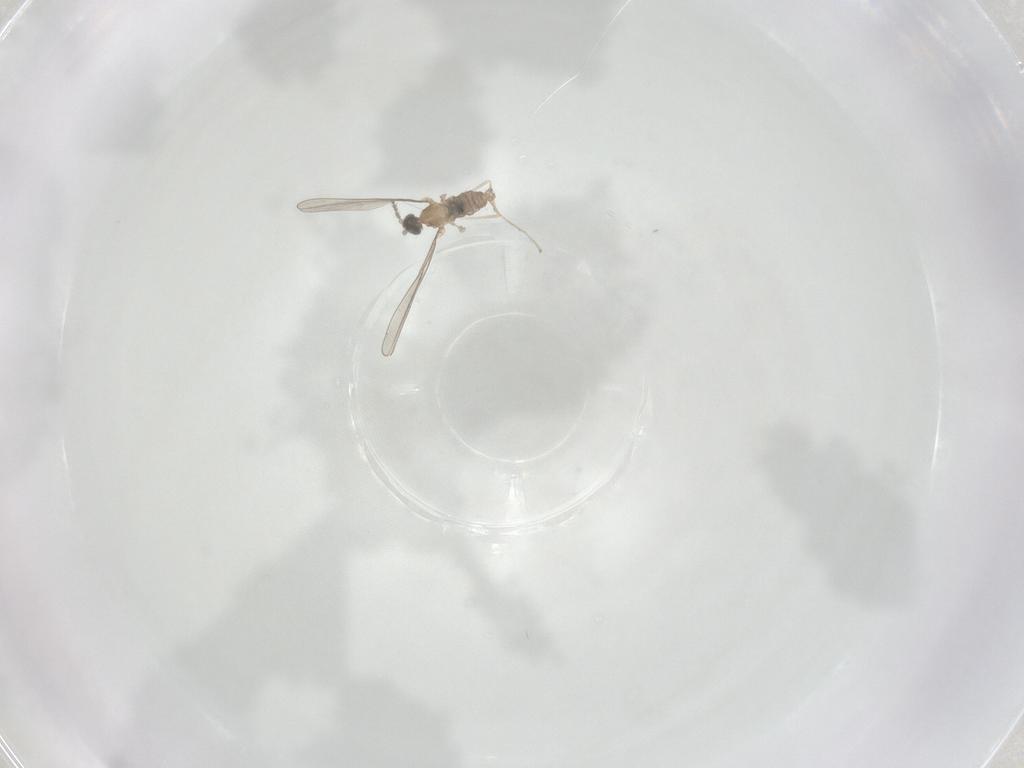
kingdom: Animalia
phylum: Arthropoda
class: Insecta
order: Diptera
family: Cecidomyiidae
